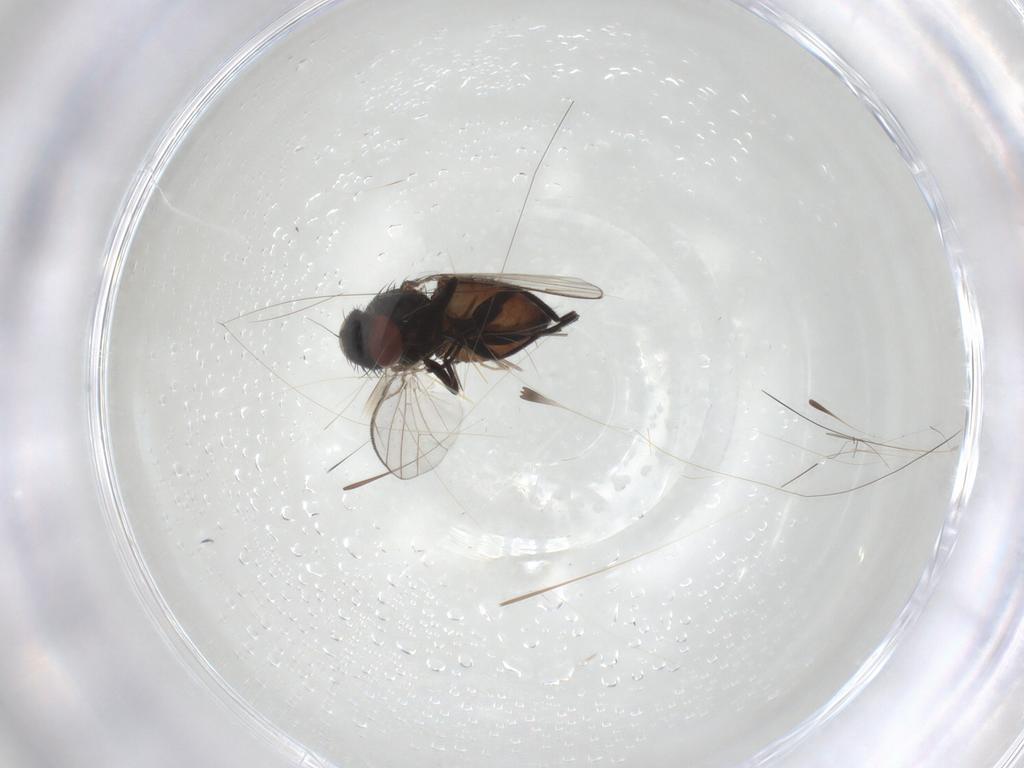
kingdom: Animalia
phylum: Arthropoda
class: Insecta
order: Diptera
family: Milichiidae
